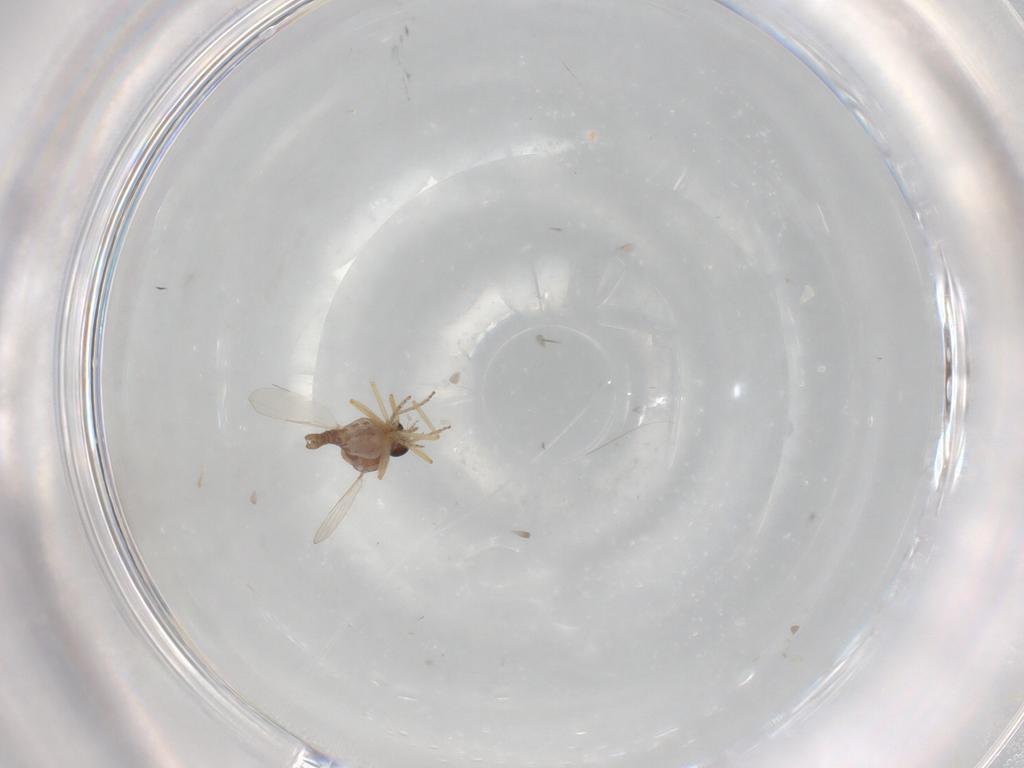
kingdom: Animalia
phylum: Arthropoda
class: Insecta
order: Diptera
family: Ceratopogonidae
